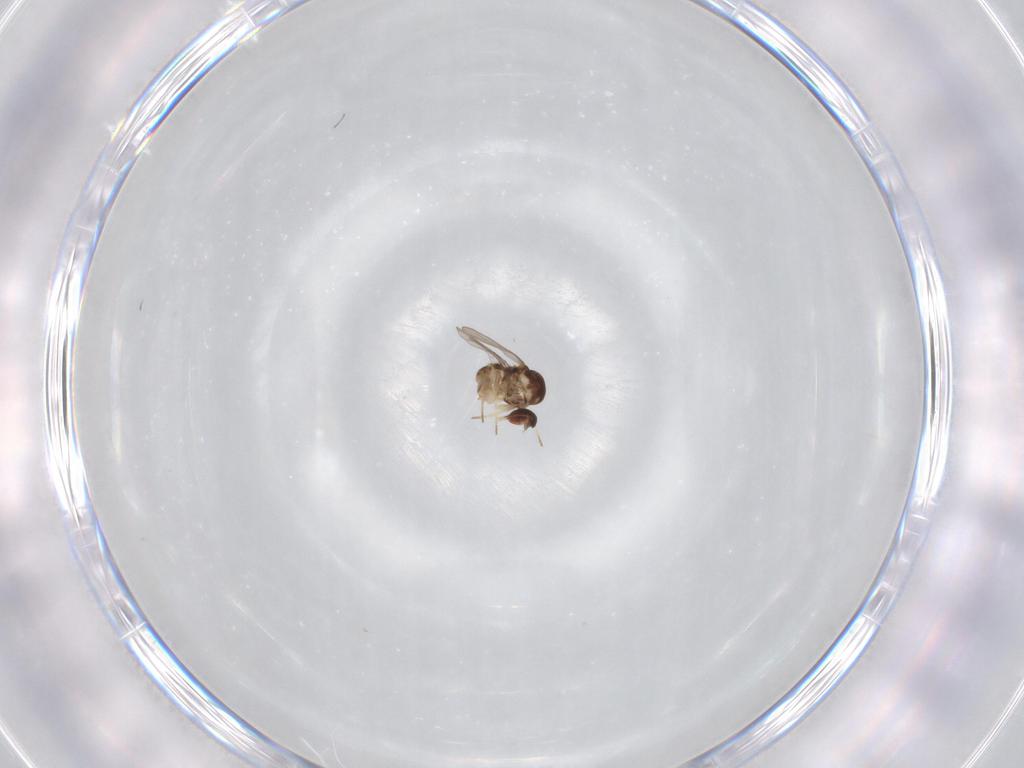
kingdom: Animalia
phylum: Arthropoda
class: Insecta
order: Diptera
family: Bombyliidae
